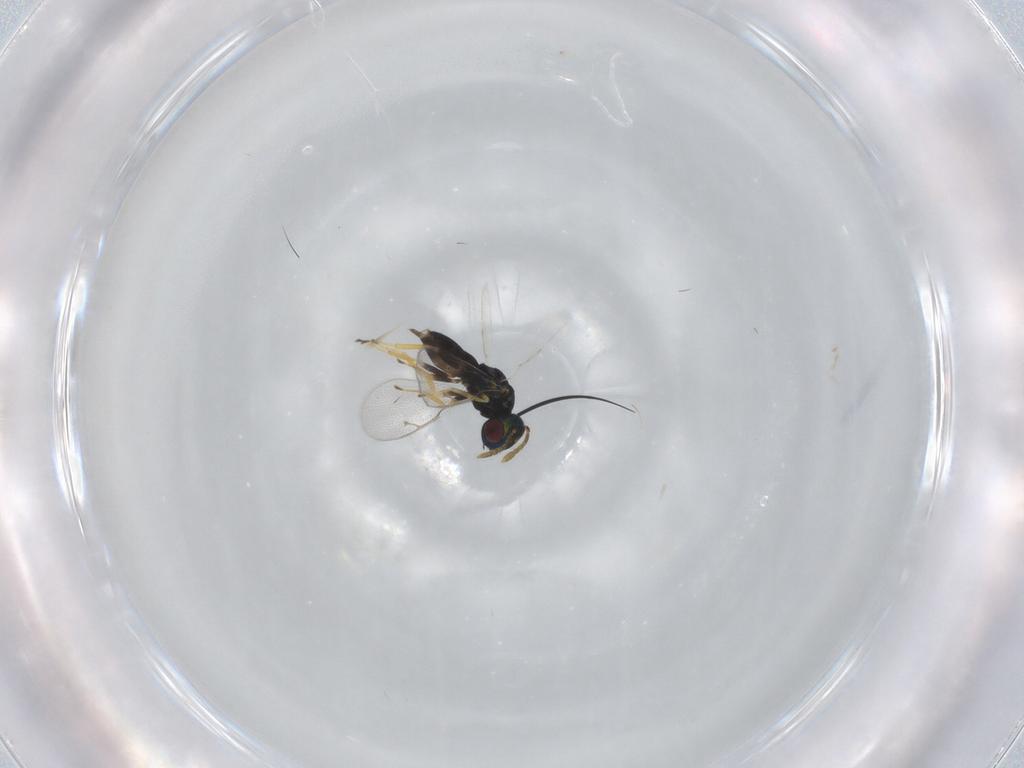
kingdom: Animalia
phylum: Arthropoda
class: Insecta
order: Hymenoptera
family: Pteromalidae
